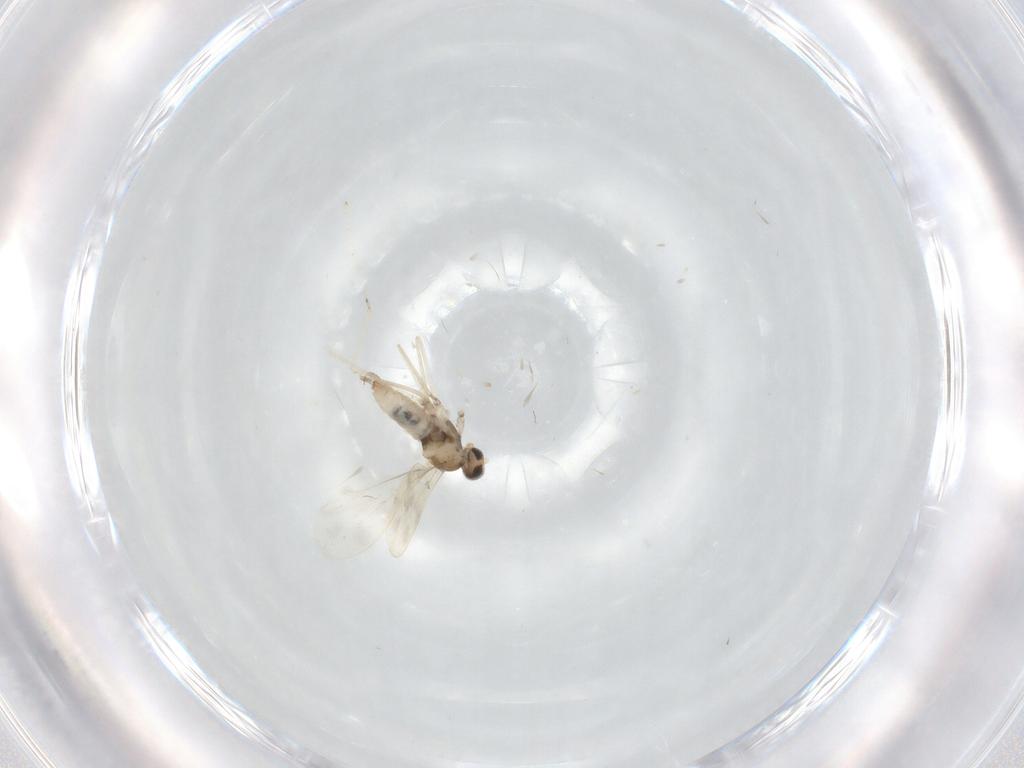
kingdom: Animalia
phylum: Arthropoda
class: Insecta
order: Diptera
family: Cecidomyiidae
